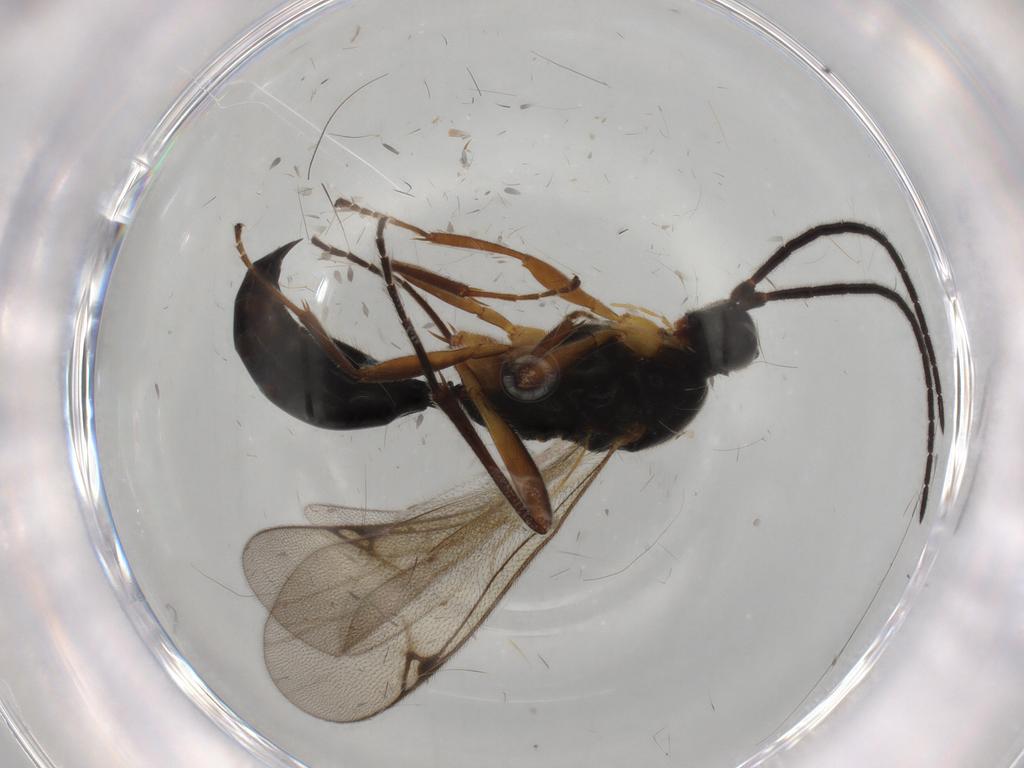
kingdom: Animalia
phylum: Arthropoda
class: Insecta
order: Hymenoptera
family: Proctotrupidae
